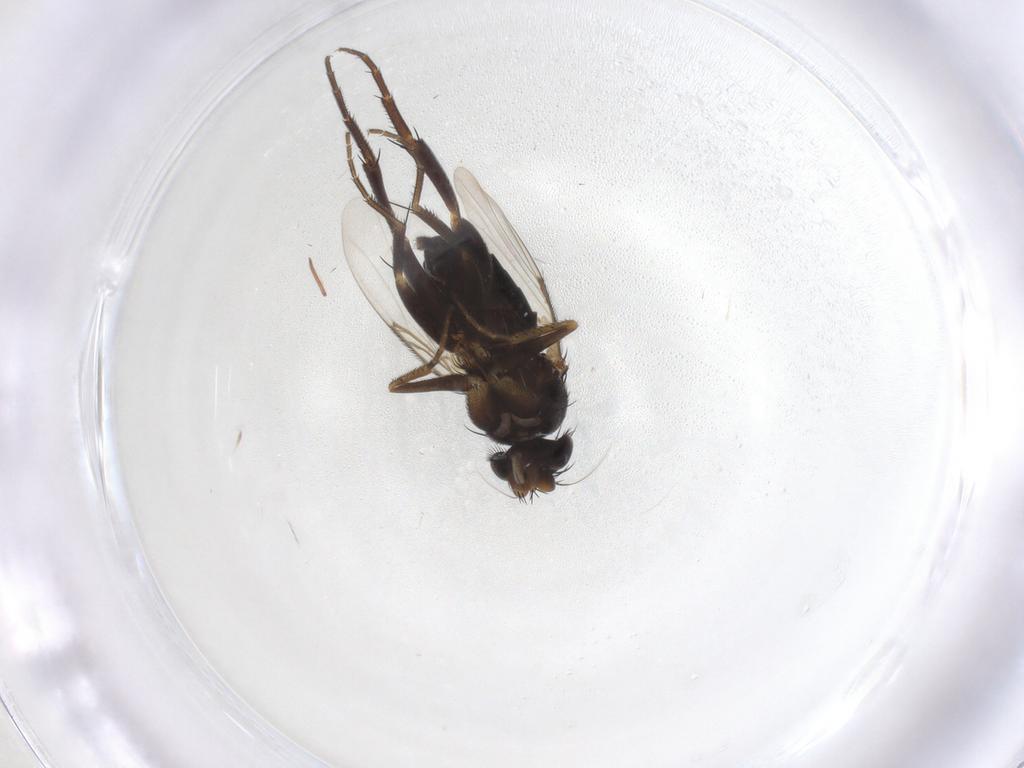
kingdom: Animalia
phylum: Arthropoda
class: Insecta
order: Diptera
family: Phoridae
